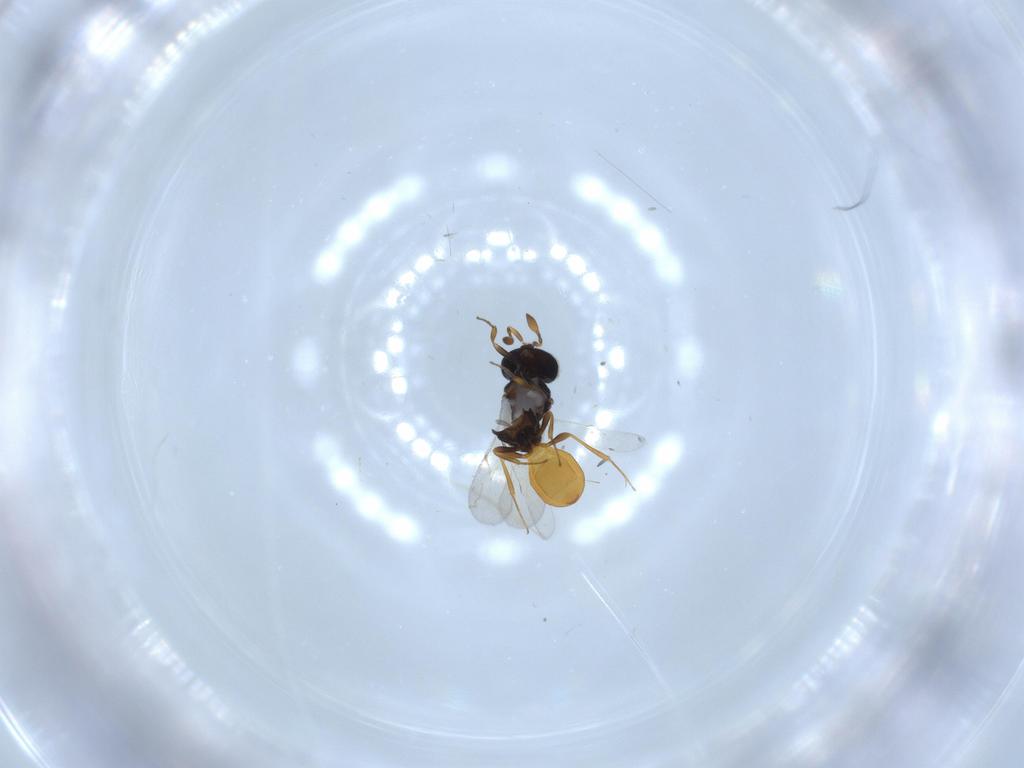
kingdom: Animalia
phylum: Arthropoda
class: Insecta
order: Hymenoptera
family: Scelionidae
